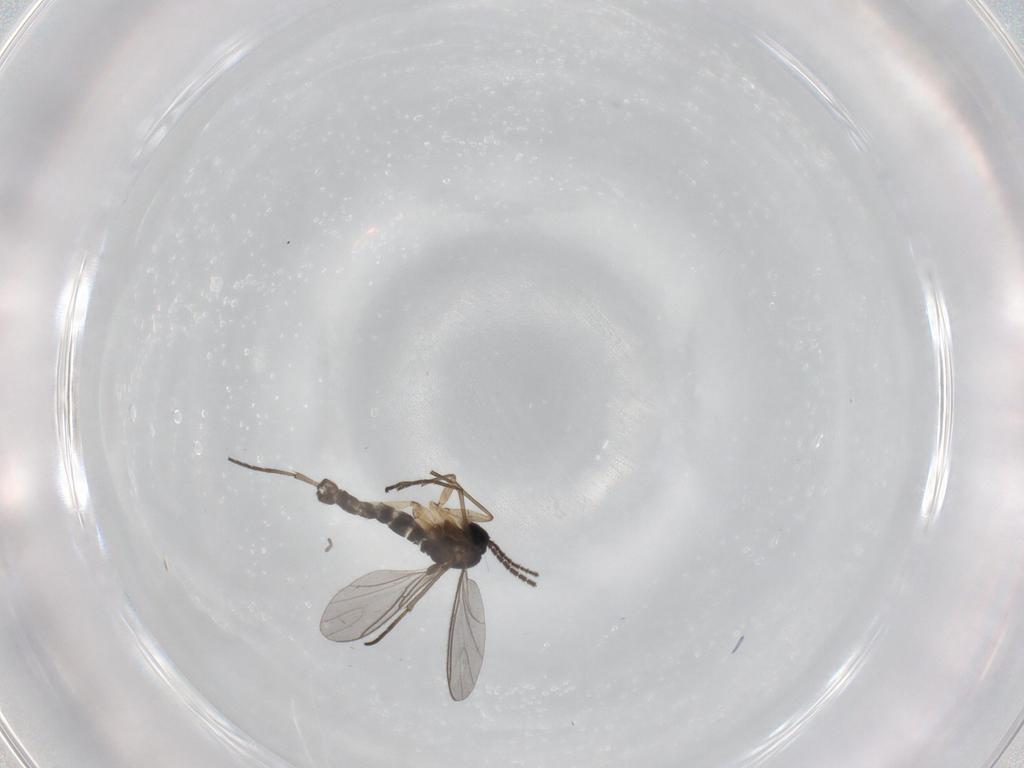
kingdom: Animalia
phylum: Arthropoda
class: Insecta
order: Diptera
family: Sciaridae
